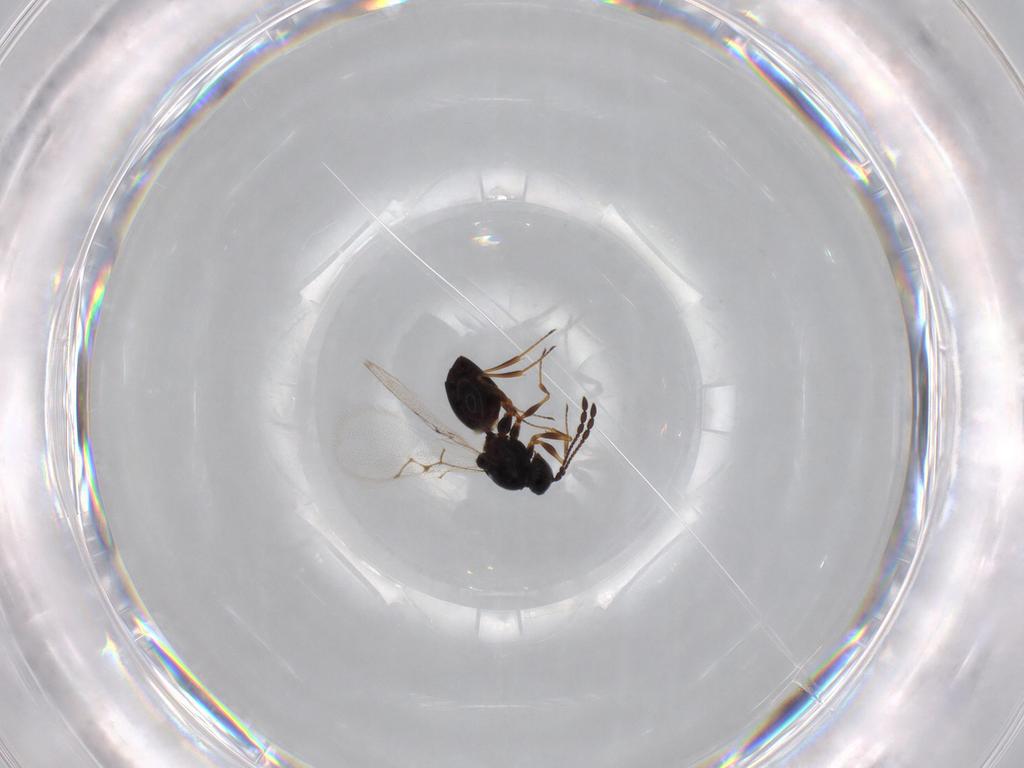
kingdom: Animalia
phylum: Arthropoda
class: Insecta
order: Hymenoptera
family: Figitidae
